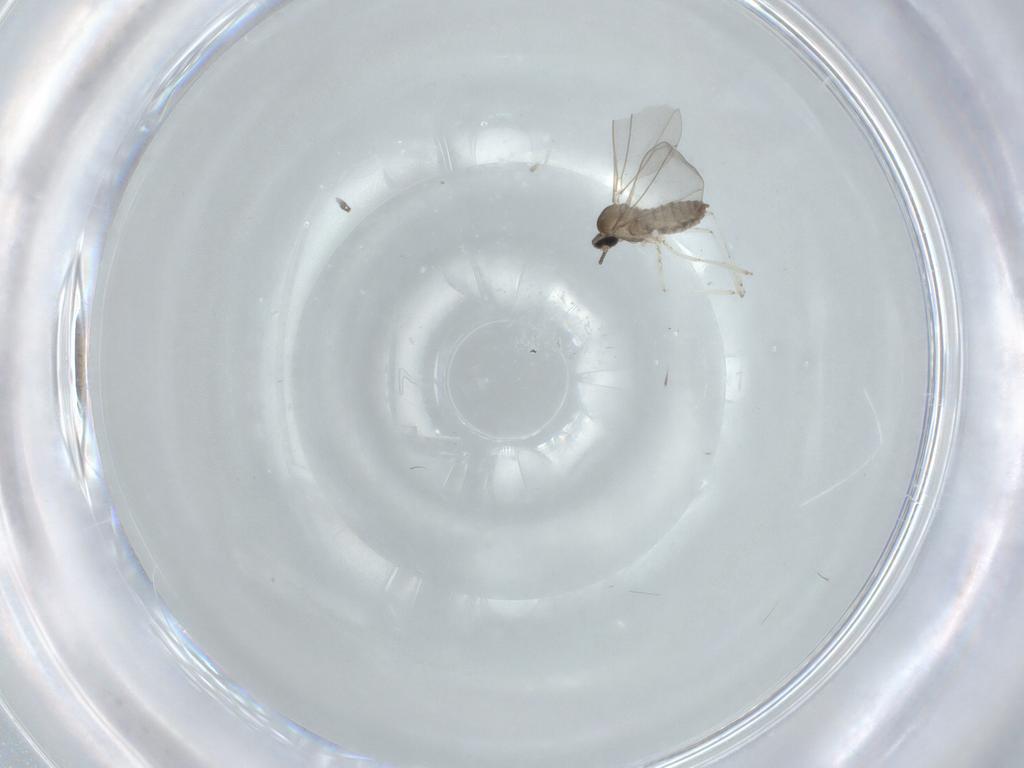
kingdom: Animalia
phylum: Arthropoda
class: Insecta
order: Diptera
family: Cecidomyiidae
